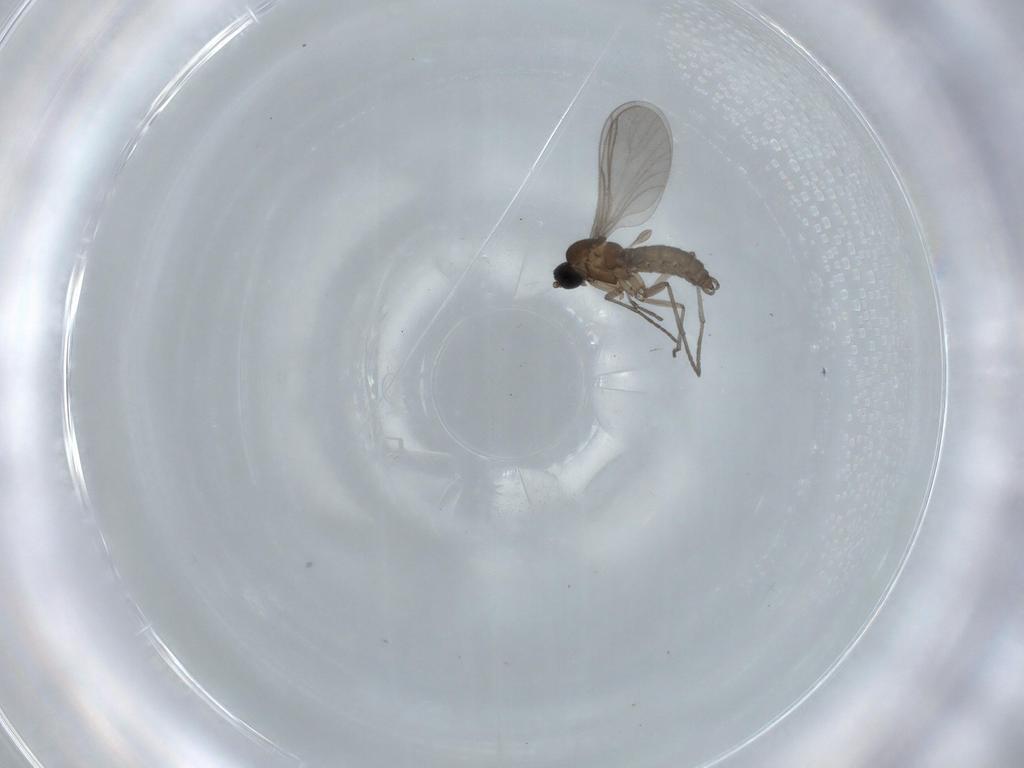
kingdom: Animalia
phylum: Arthropoda
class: Insecta
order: Diptera
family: Sciaridae
